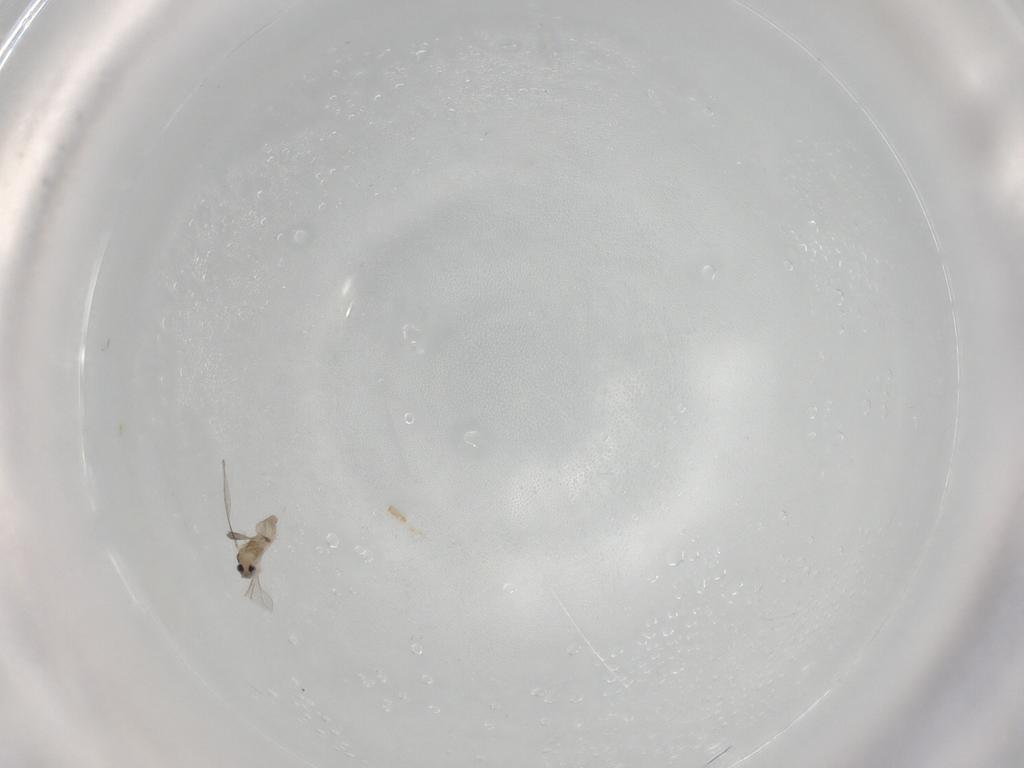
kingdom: Animalia
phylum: Arthropoda
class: Insecta
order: Diptera
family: Cecidomyiidae
